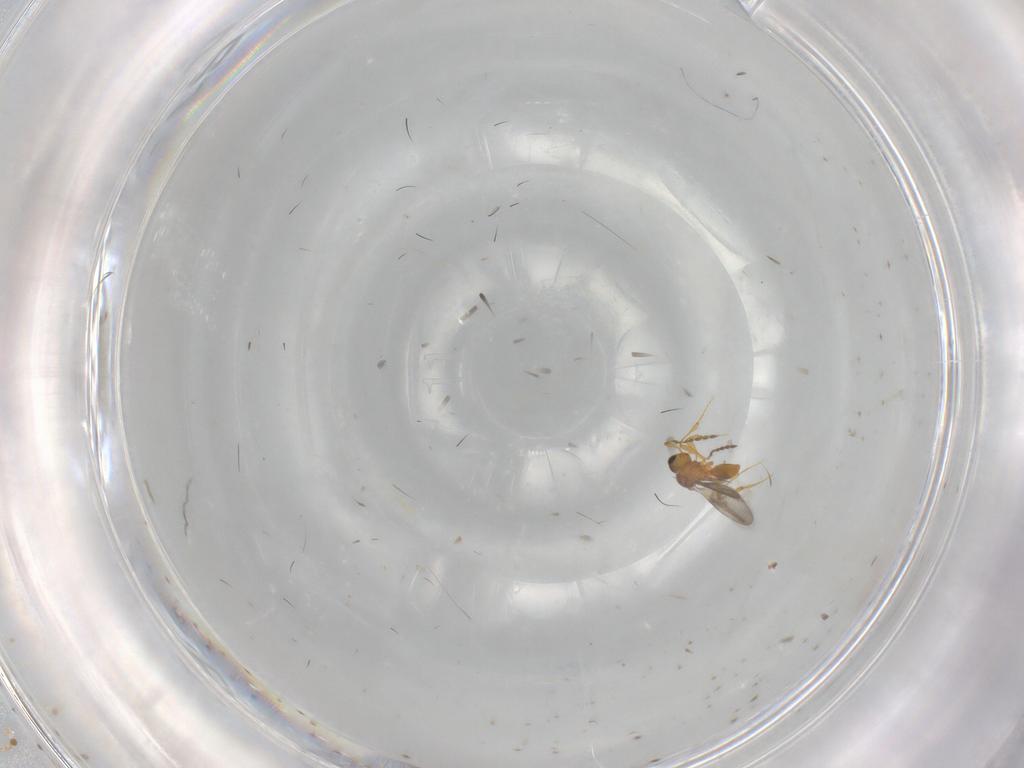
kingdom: Animalia
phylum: Arthropoda
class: Insecta
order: Hymenoptera
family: Platygastridae
